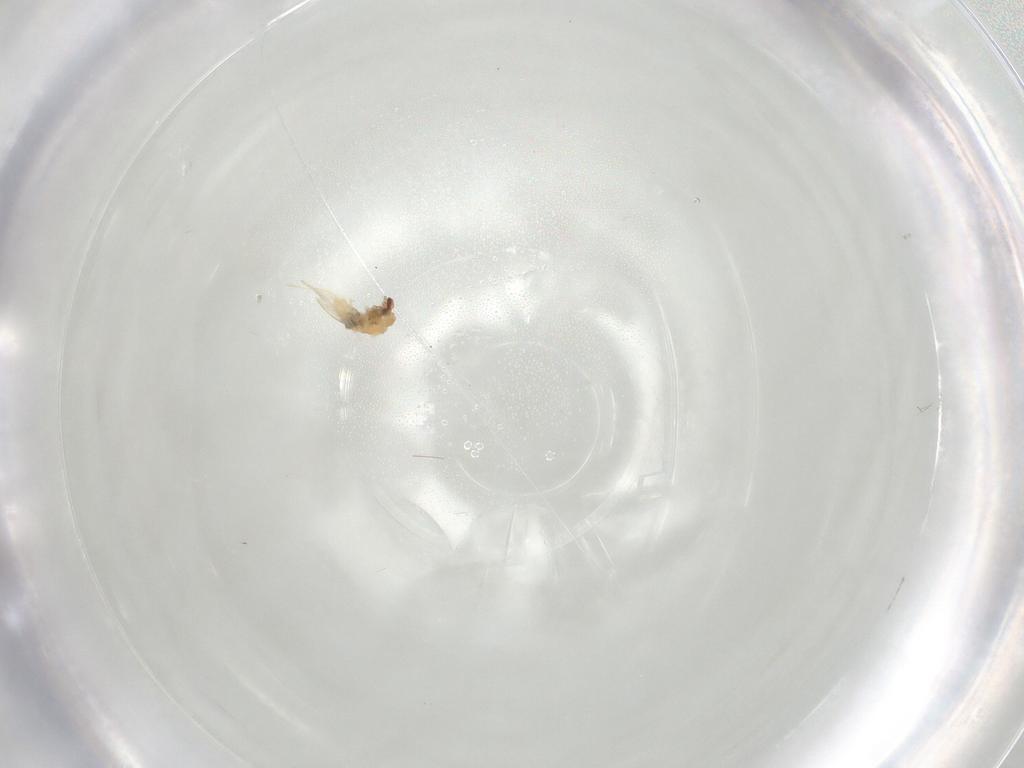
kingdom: Animalia
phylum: Arthropoda
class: Insecta
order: Diptera
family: Cecidomyiidae
